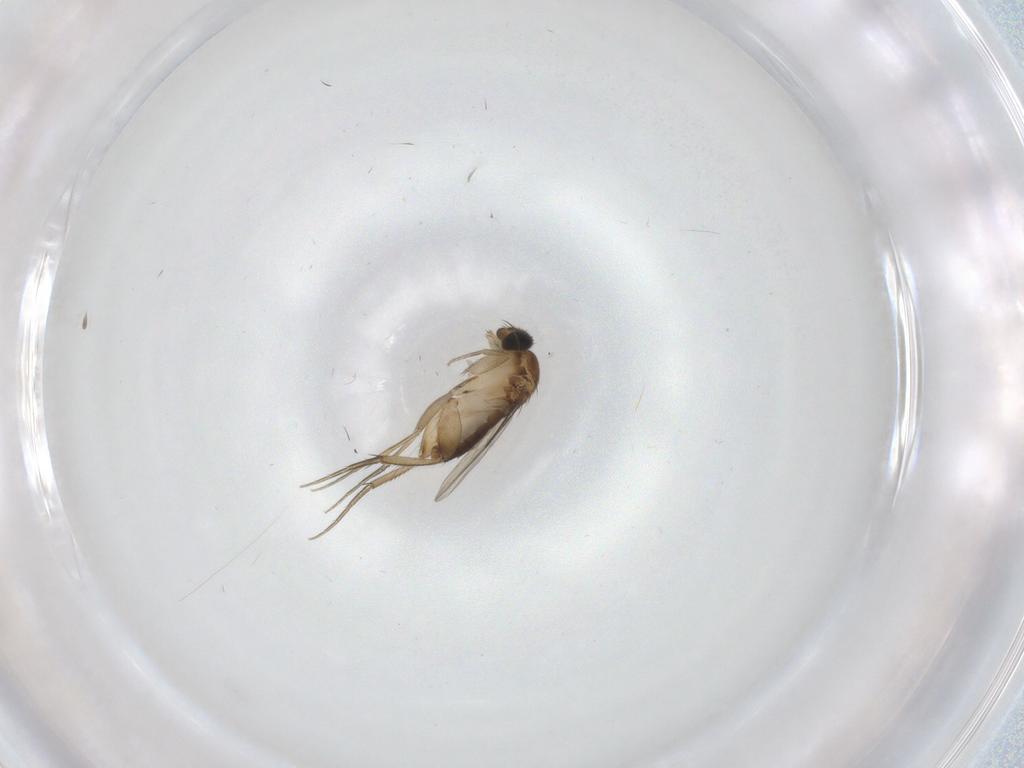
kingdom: Animalia
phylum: Arthropoda
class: Insecta
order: Diptera
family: Phoridae
